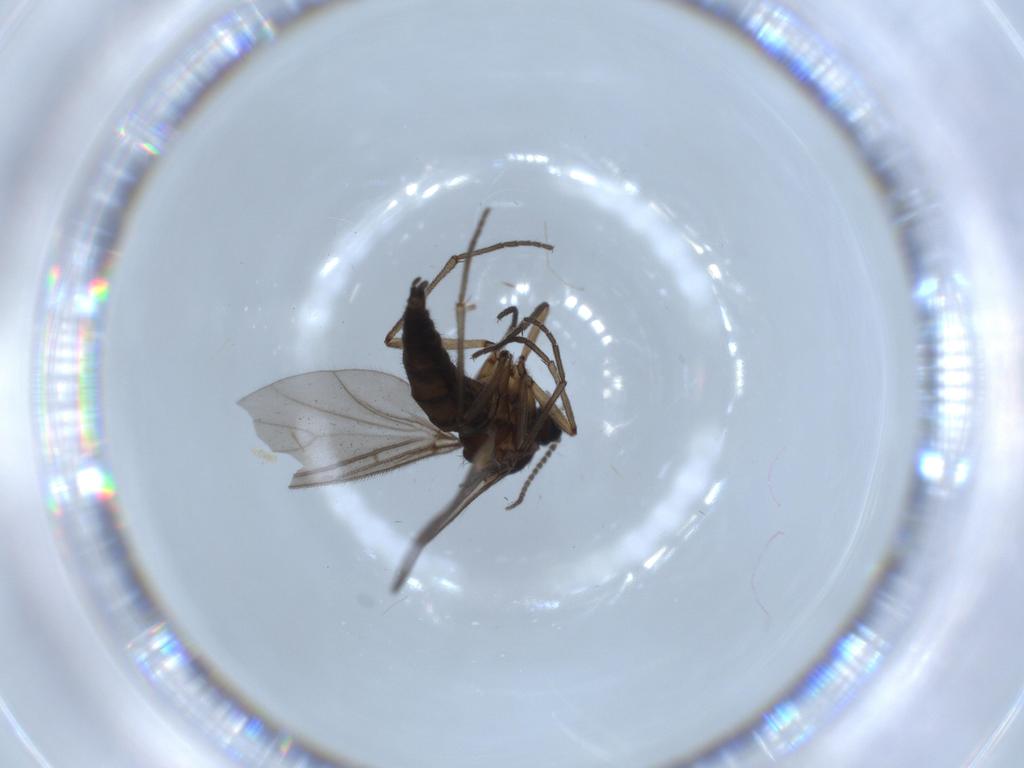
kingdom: Animalia
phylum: Arthropoda
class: Insecta
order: Diptera
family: Sciaridae
